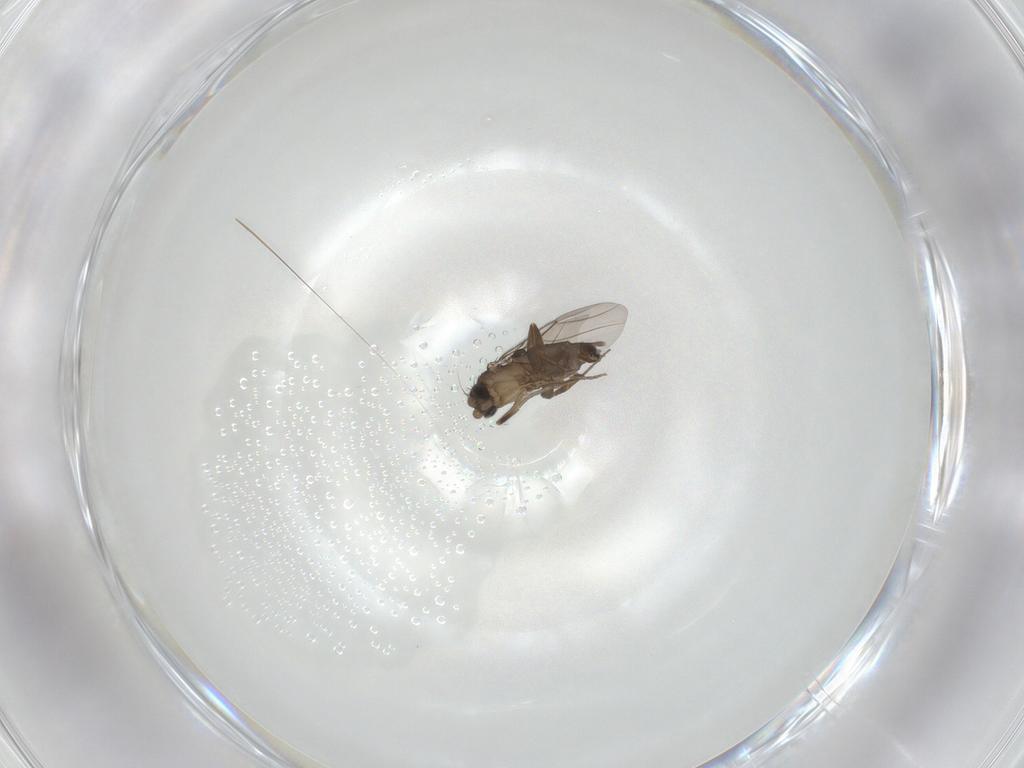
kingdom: Animalia
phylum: Arthropoda
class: Insecta
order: Diptera
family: Phoridae
